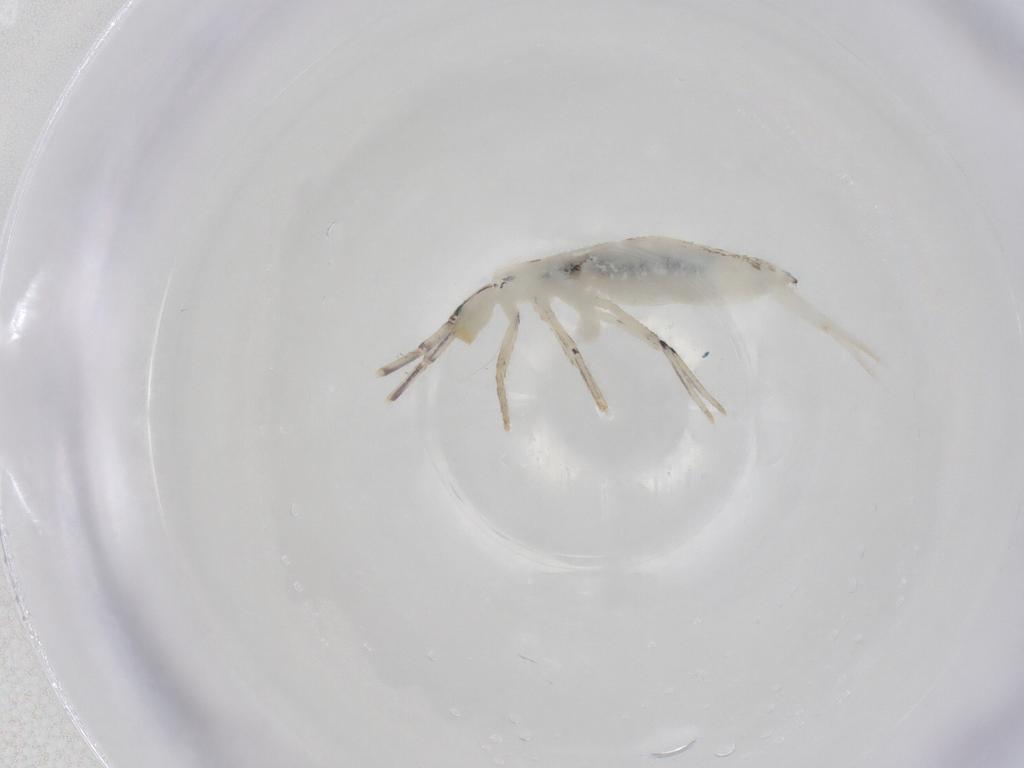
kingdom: Animalia
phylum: Arthropoda
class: Collembola
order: Entomobryomorpha
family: Entomobryidae
